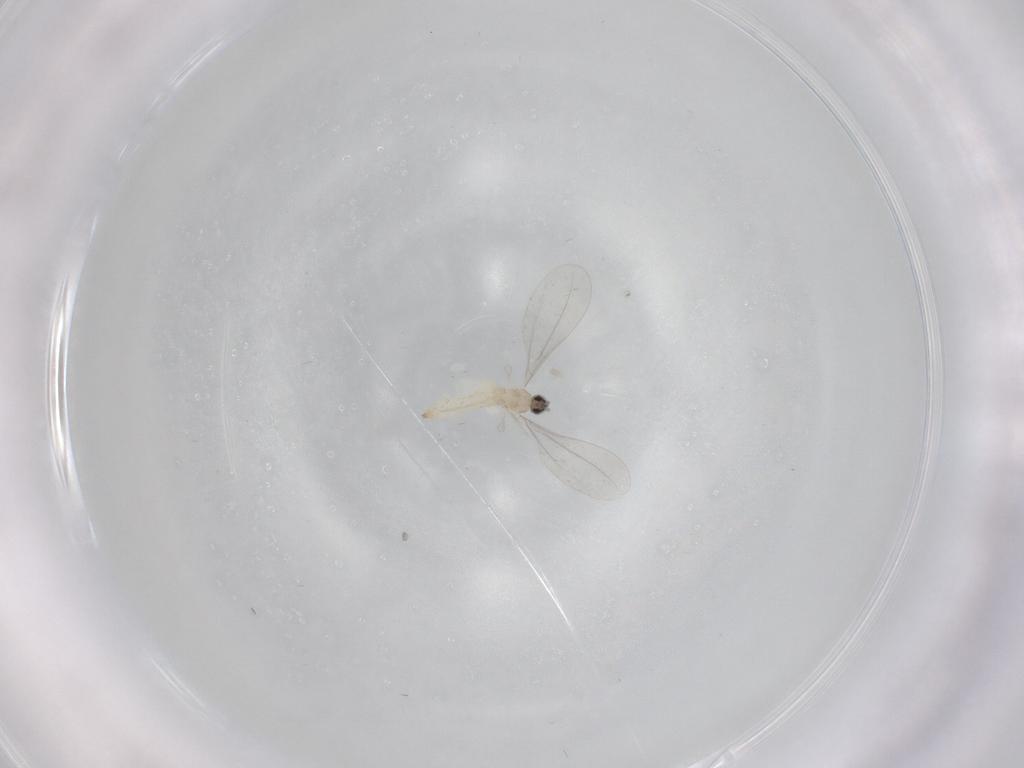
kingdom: Animalia
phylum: Arthropoda
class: Insecta
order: Diptera
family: Cecidomyiidae
